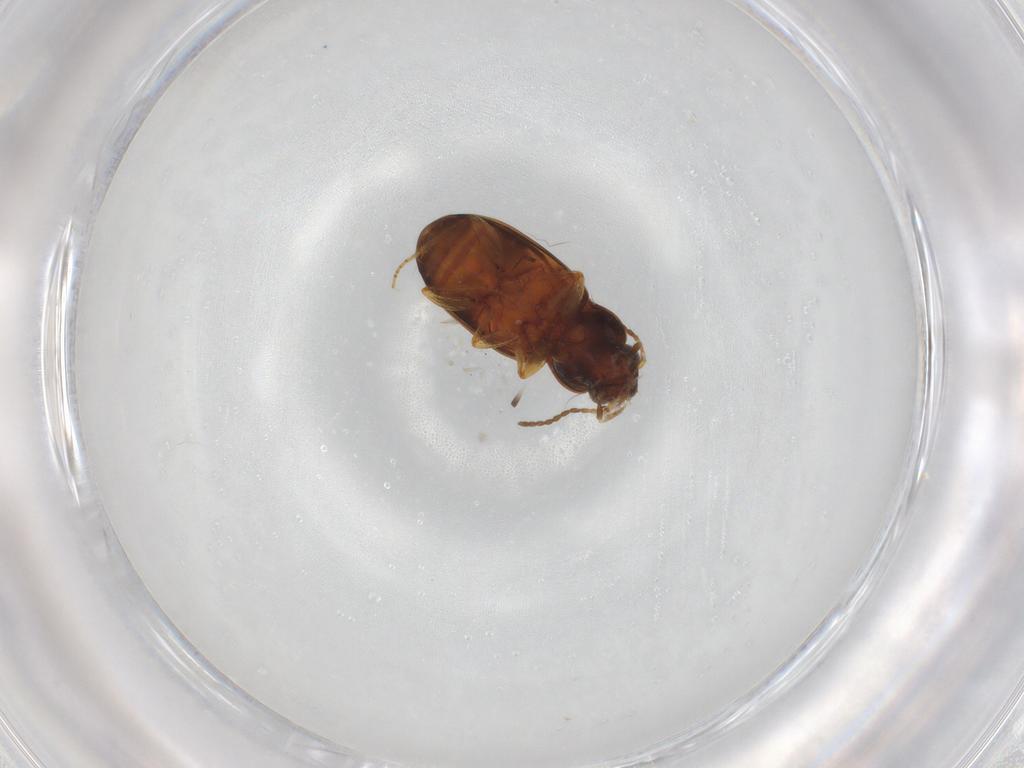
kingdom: Animalia
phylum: Arthropoda
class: Insecta
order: Coleoptera
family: Carabidae
